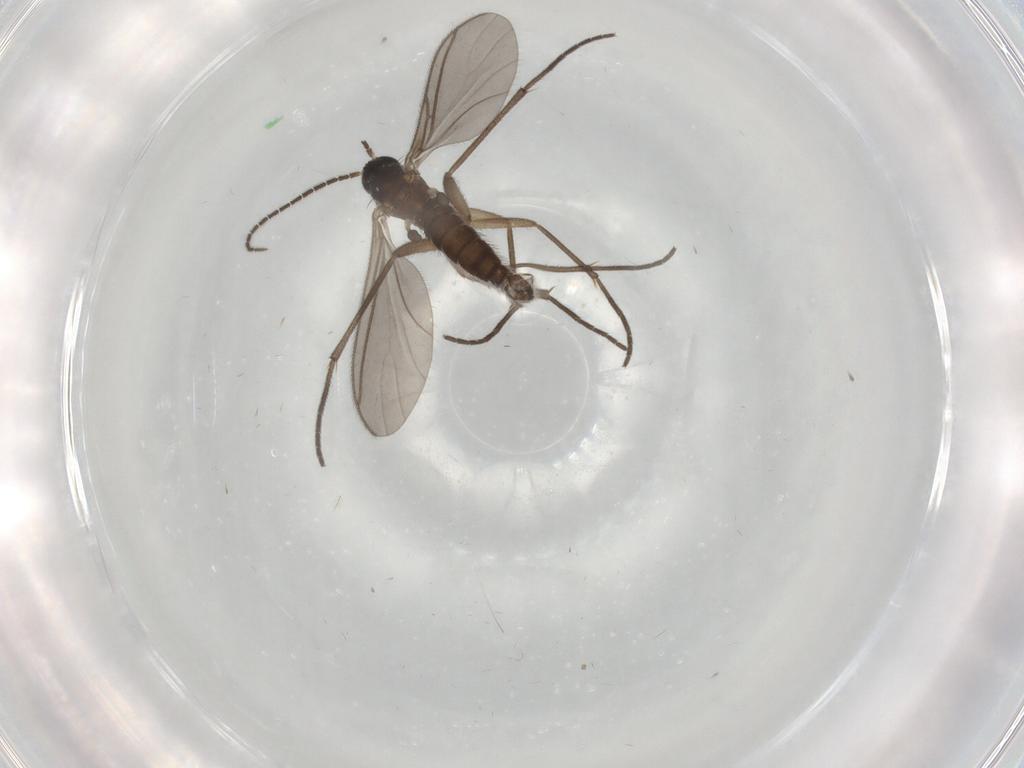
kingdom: Animalia
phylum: Arthropoda
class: Insecta
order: Diptera
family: Sciaridae
